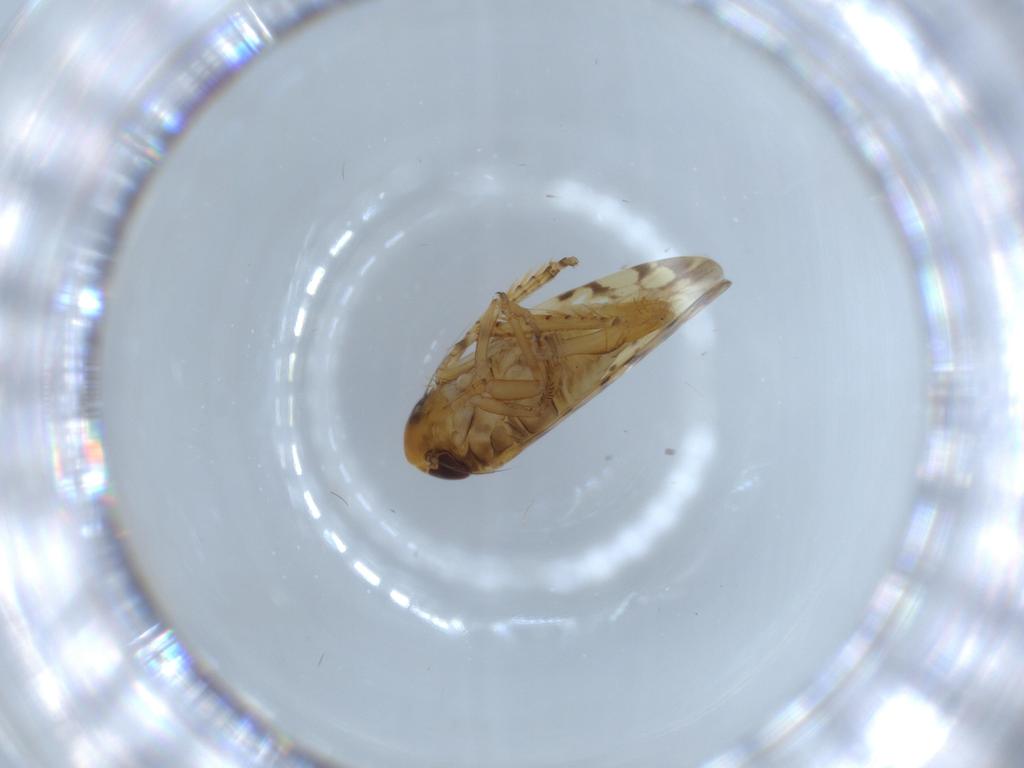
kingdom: Animalia
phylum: Arthropoda
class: Insecta
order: Hemiptera
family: Cicadellidae
